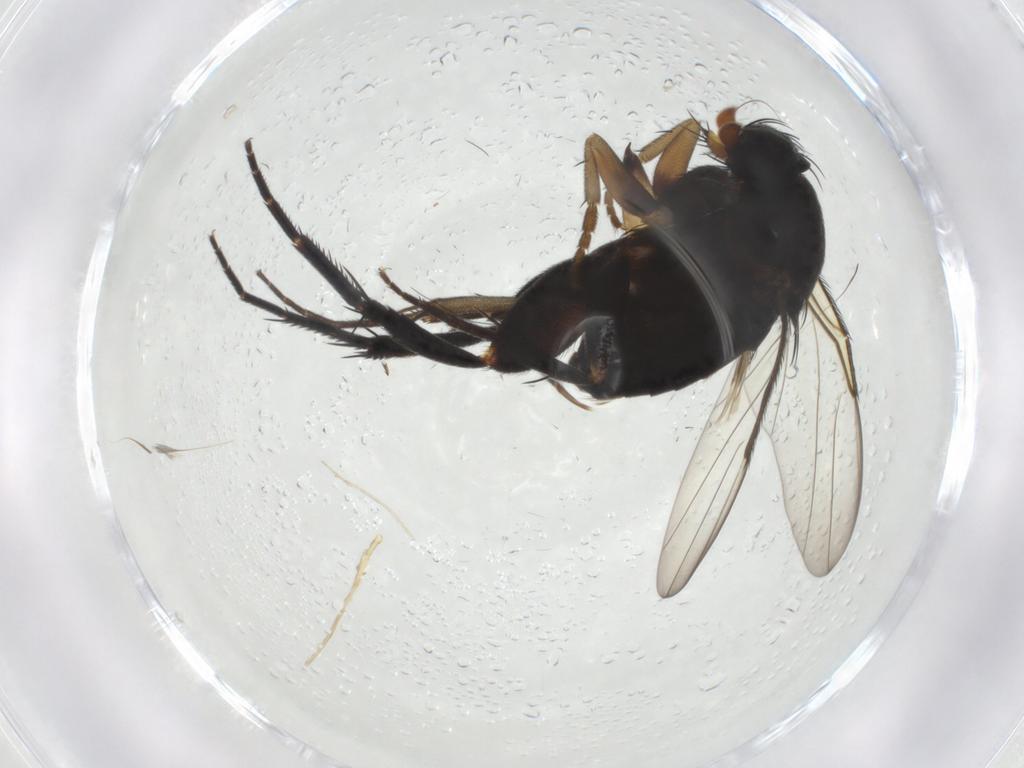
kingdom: Animalia
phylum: Arthropoda
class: Insecta
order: Diptera
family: Phoridae
